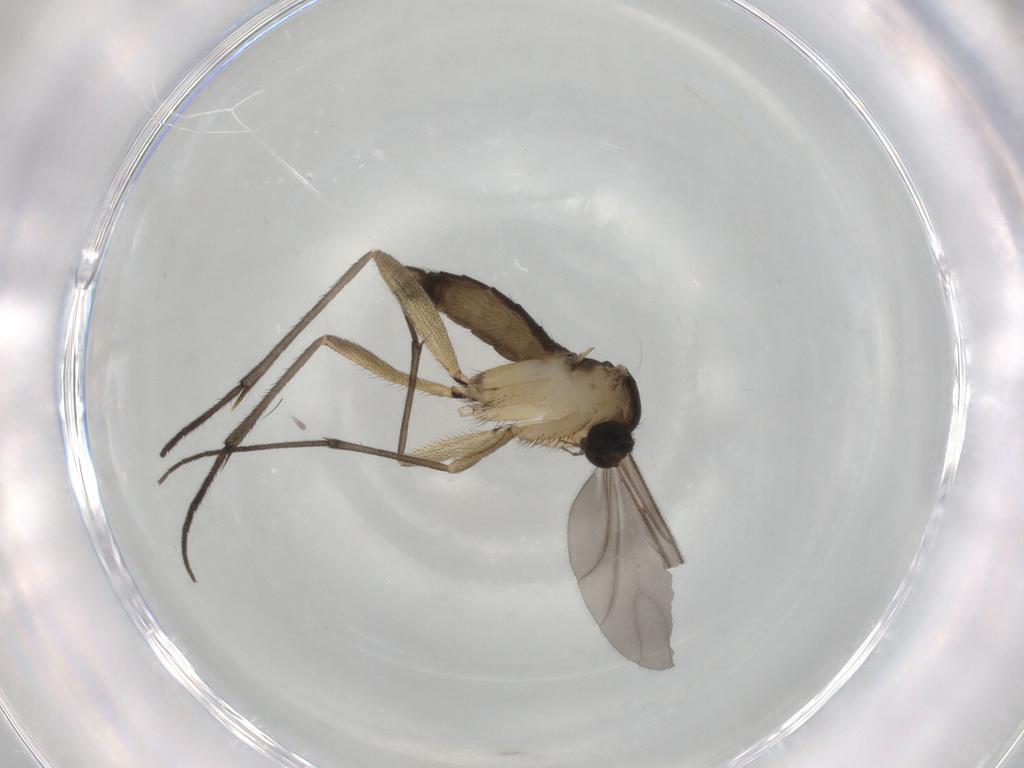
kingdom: Animalia
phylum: Arthropoda
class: Insecta
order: Diptera
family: Sciaridae
